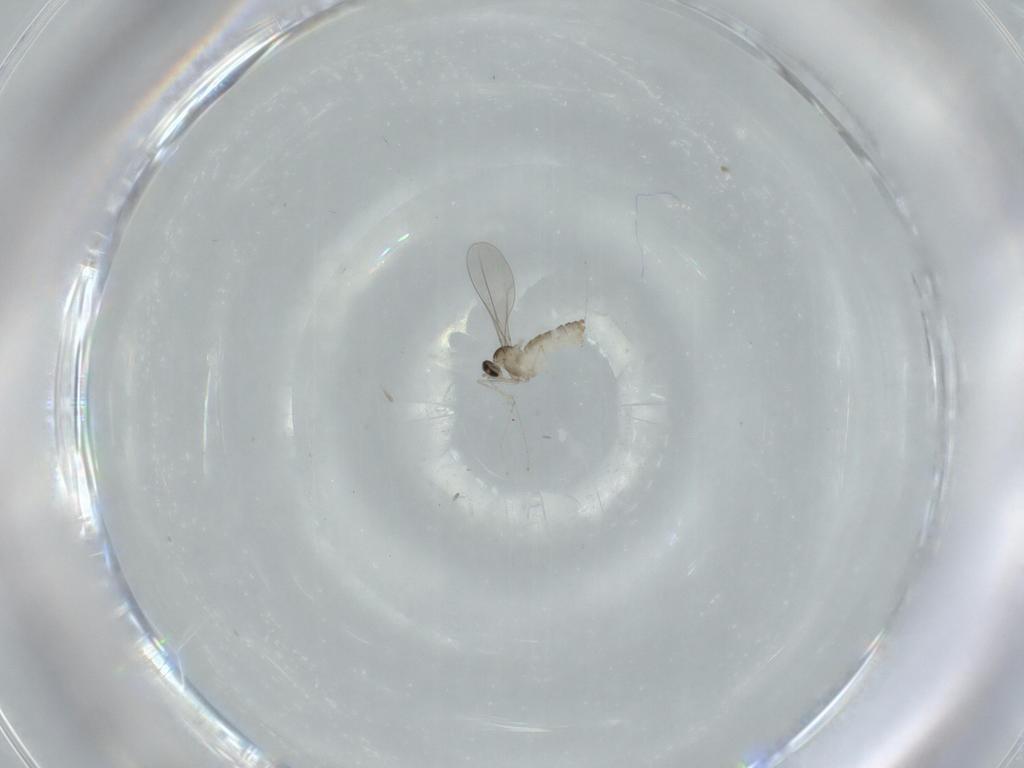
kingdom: Animalia
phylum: Arthropoda
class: Insecta
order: Diptera
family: Cecidomyiidae
